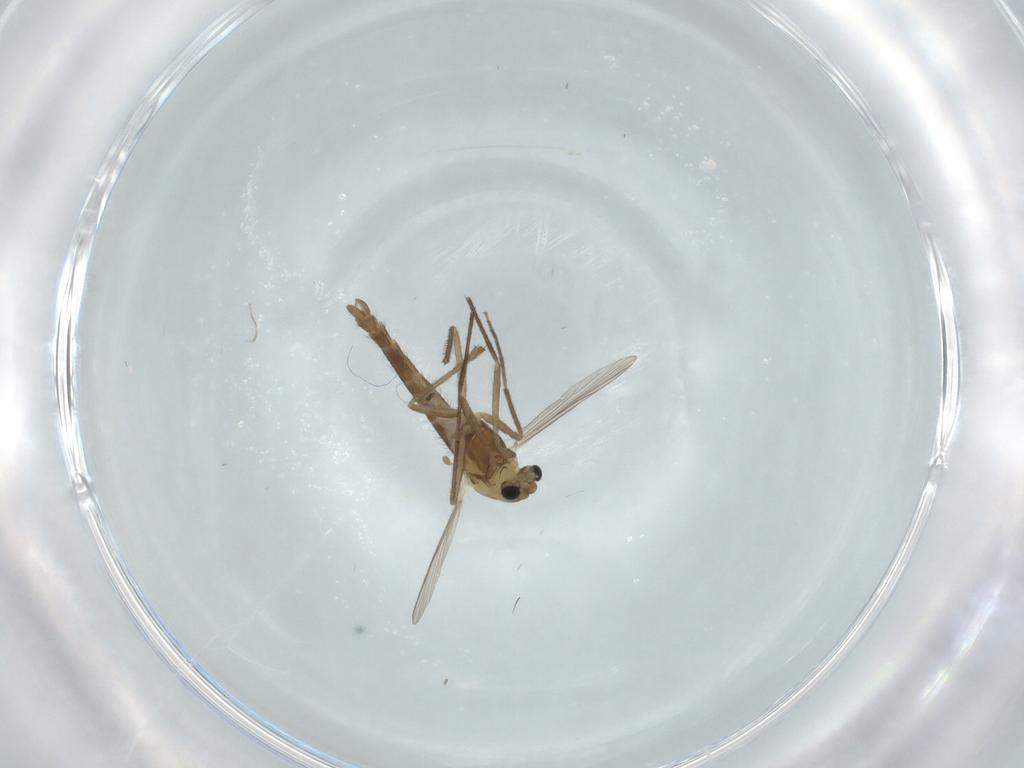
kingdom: Animalia
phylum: Arthropoda
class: Insecta
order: Diptera
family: Chironomidae
